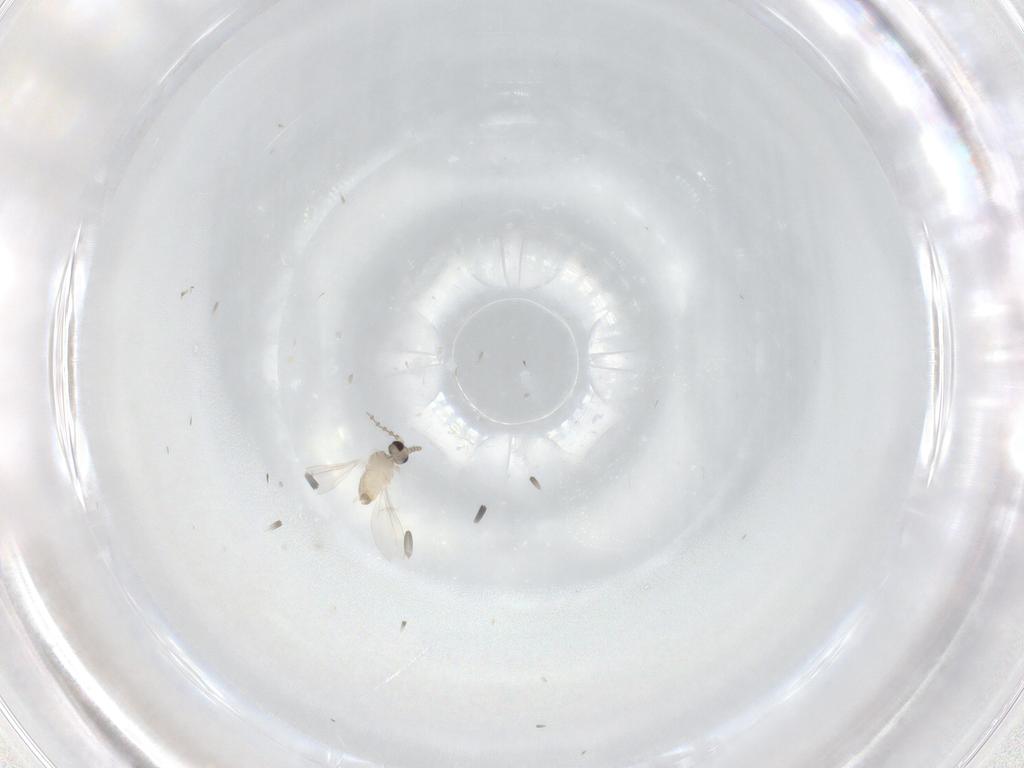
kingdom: Animalia
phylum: Arthropoda
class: Insecta
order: Diptera
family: Cecidomyiidae
